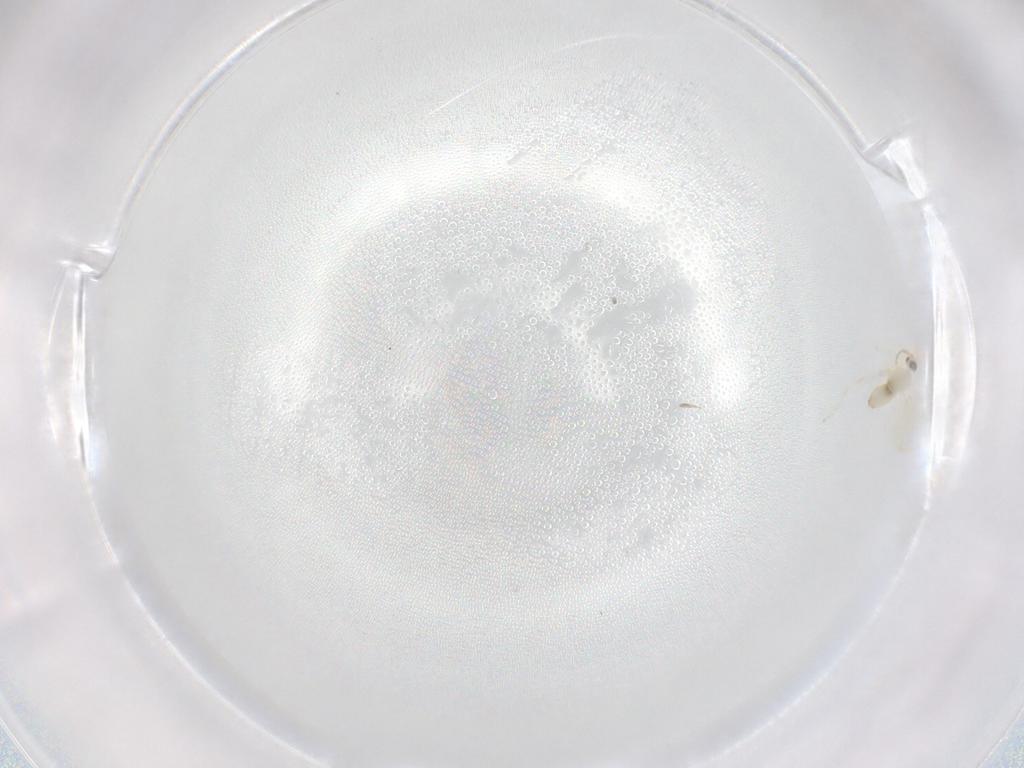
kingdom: Animalia
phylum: Arthropoda
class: Insecta
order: Diptera
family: Cecidomyiidae
